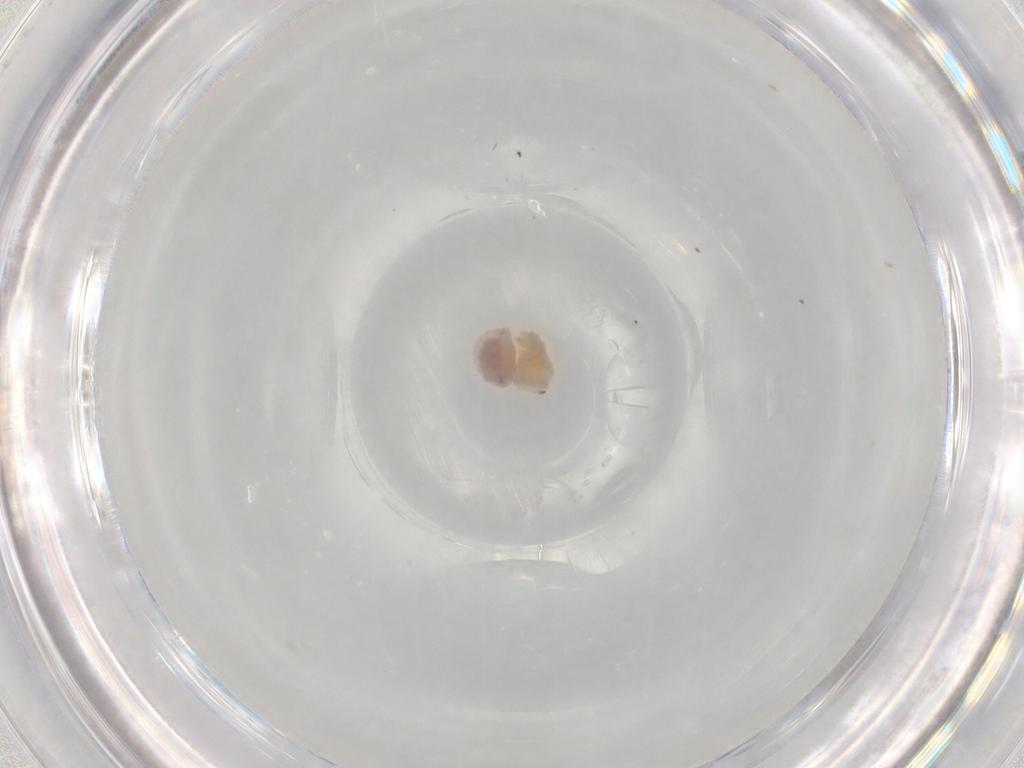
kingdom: Animalia
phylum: Arthropoda
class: Arachnida
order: Araneae
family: Pholcidae
